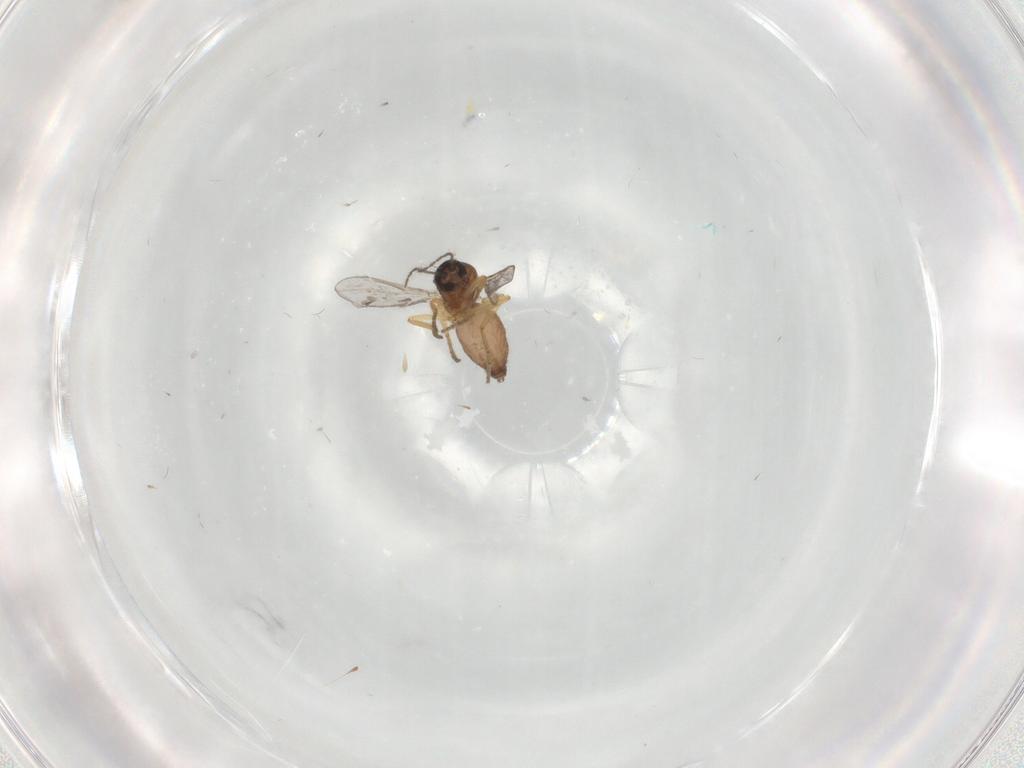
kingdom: Animalia
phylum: Arthropoda
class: Insecta
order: Diptera
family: Ceratopogonidae
